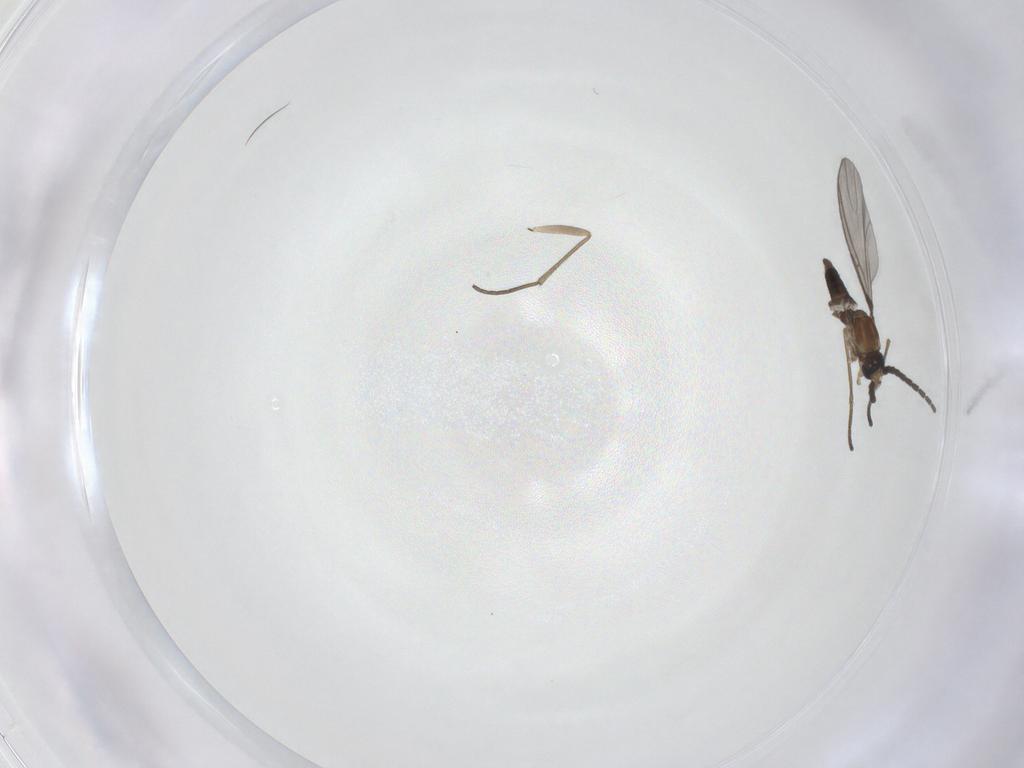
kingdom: Animalia
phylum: Arthropoda
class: Insecta
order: Diptera
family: Sciaridae
